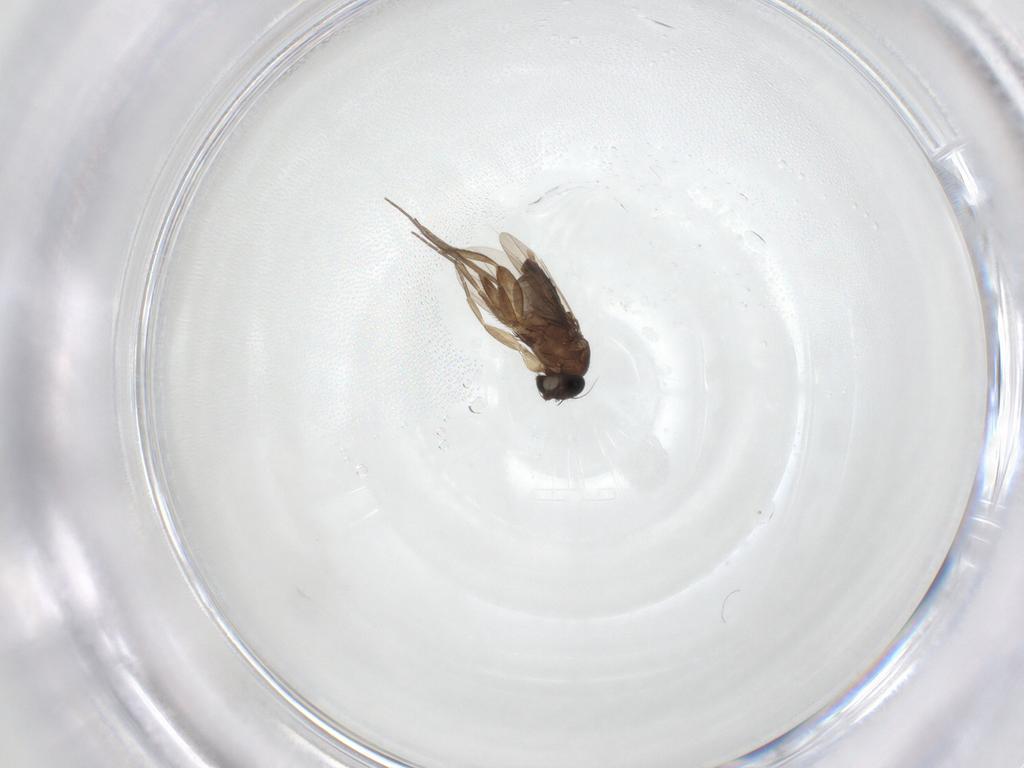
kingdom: Animalia
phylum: Arthropoda
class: Insecta
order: Diptera
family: Phoridae
